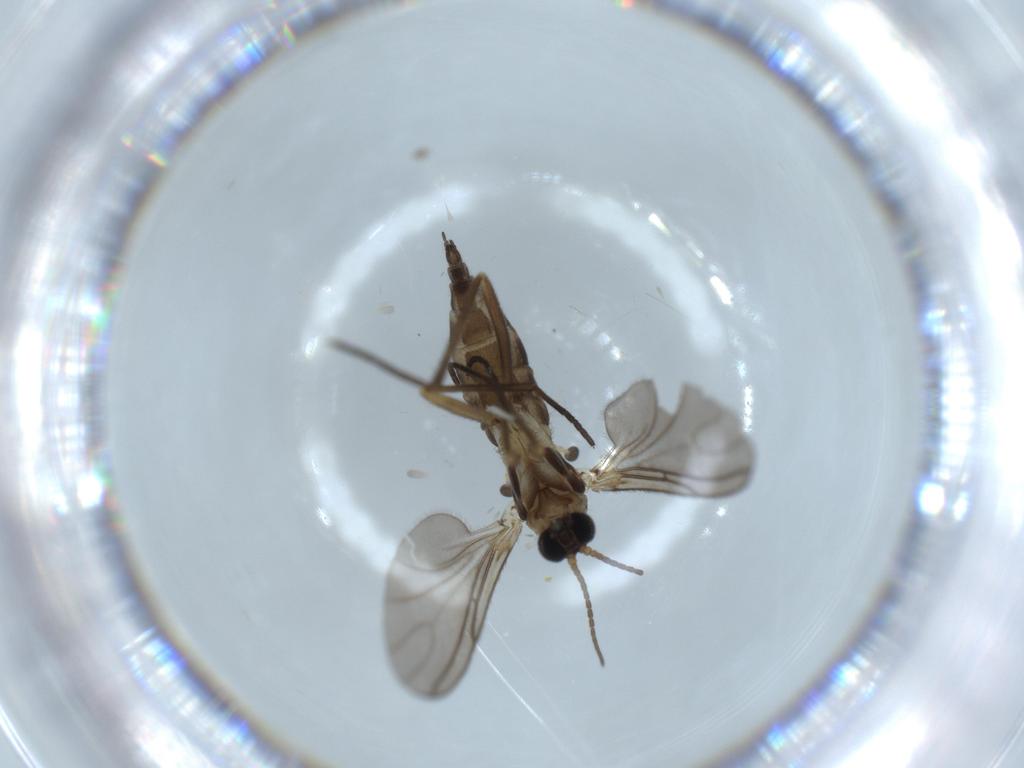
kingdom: Animalia
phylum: Arthropoda
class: Insecta
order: Diptera
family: Sciaridae
